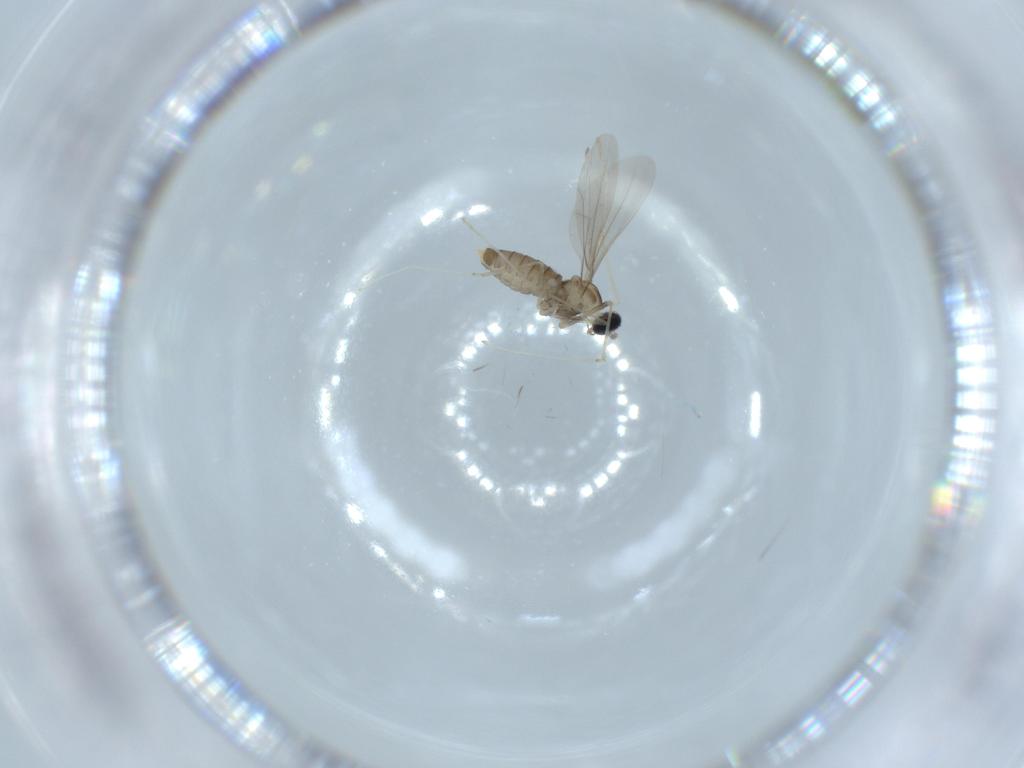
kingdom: Animalia
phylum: Arthropoda
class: Insecta
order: Diptera
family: Cecidomyiidae
